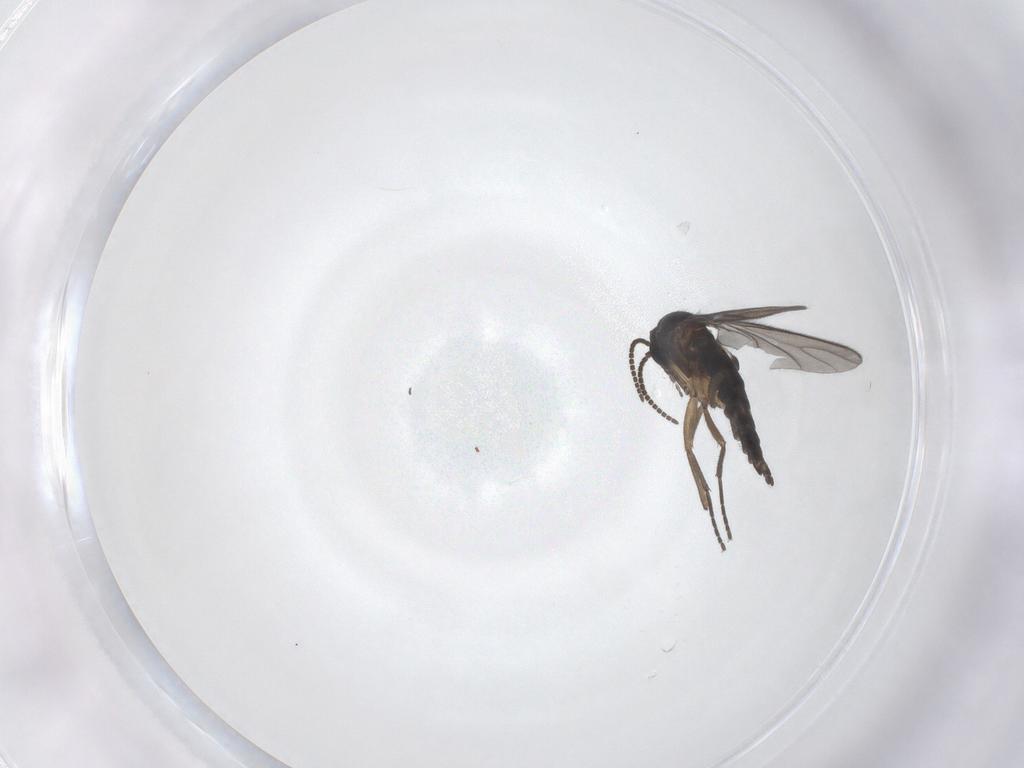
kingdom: Animalia
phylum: Arthropoda
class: Insecta
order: Diptera
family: Sciaridae
